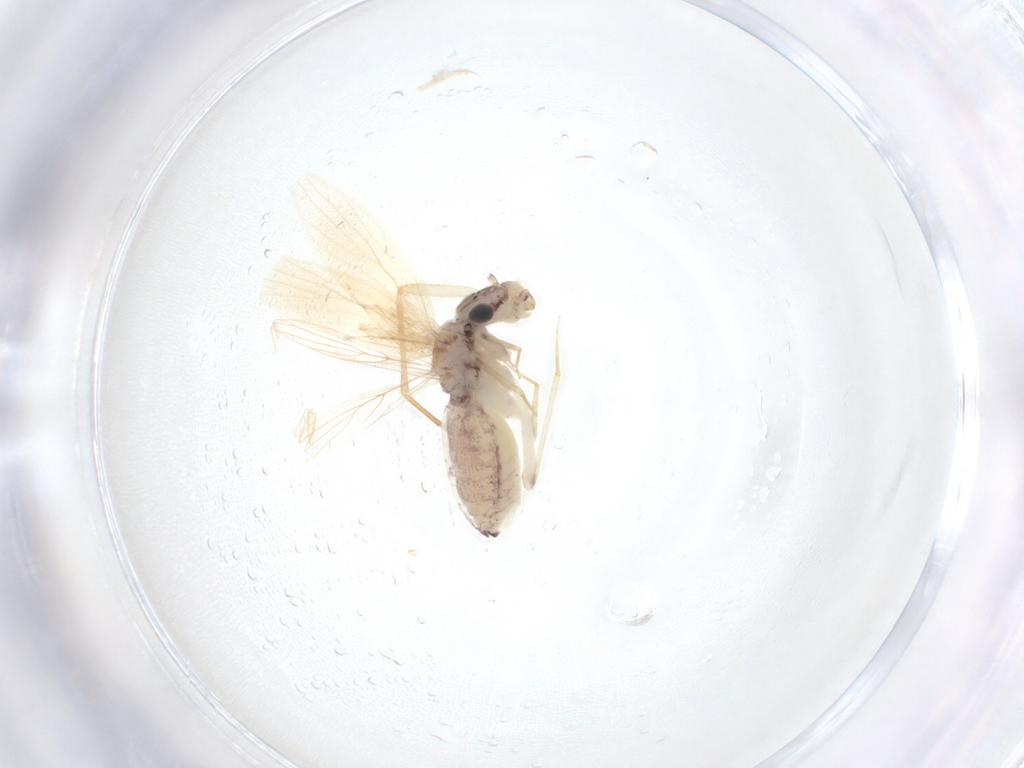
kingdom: Animalia
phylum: Arthropoda
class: Insecta
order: Psocodea
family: Lepidopsocidae
